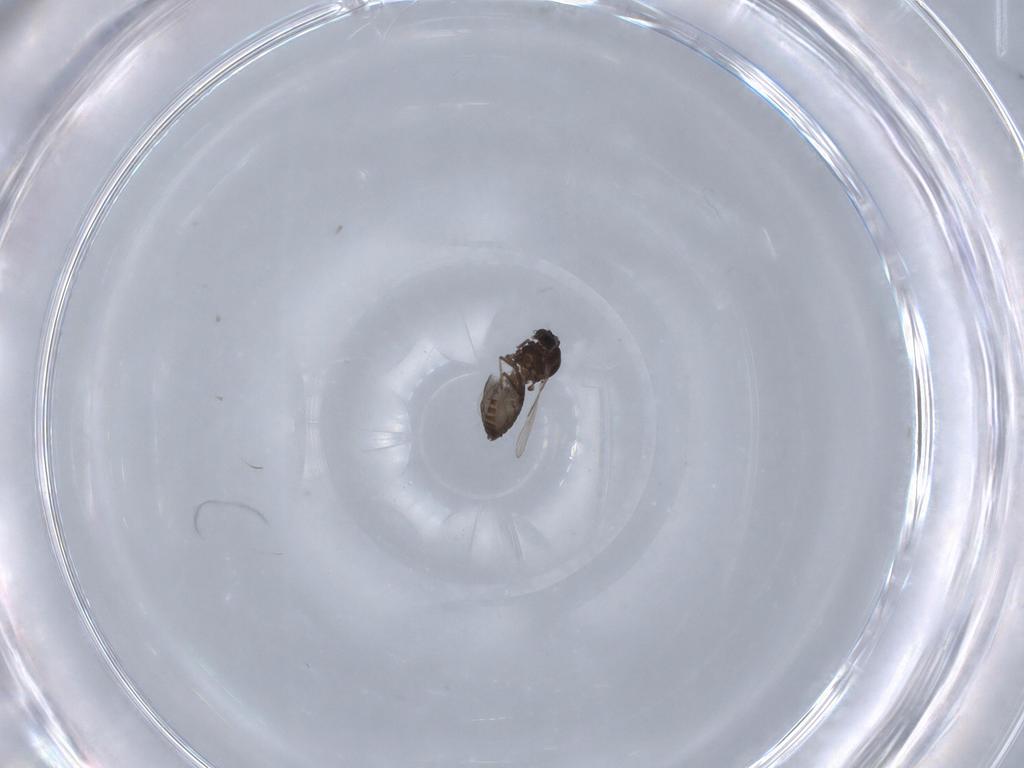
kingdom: Animalia
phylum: Arthropoda
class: Insecta
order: Diptera
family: Ceratopogonidae
